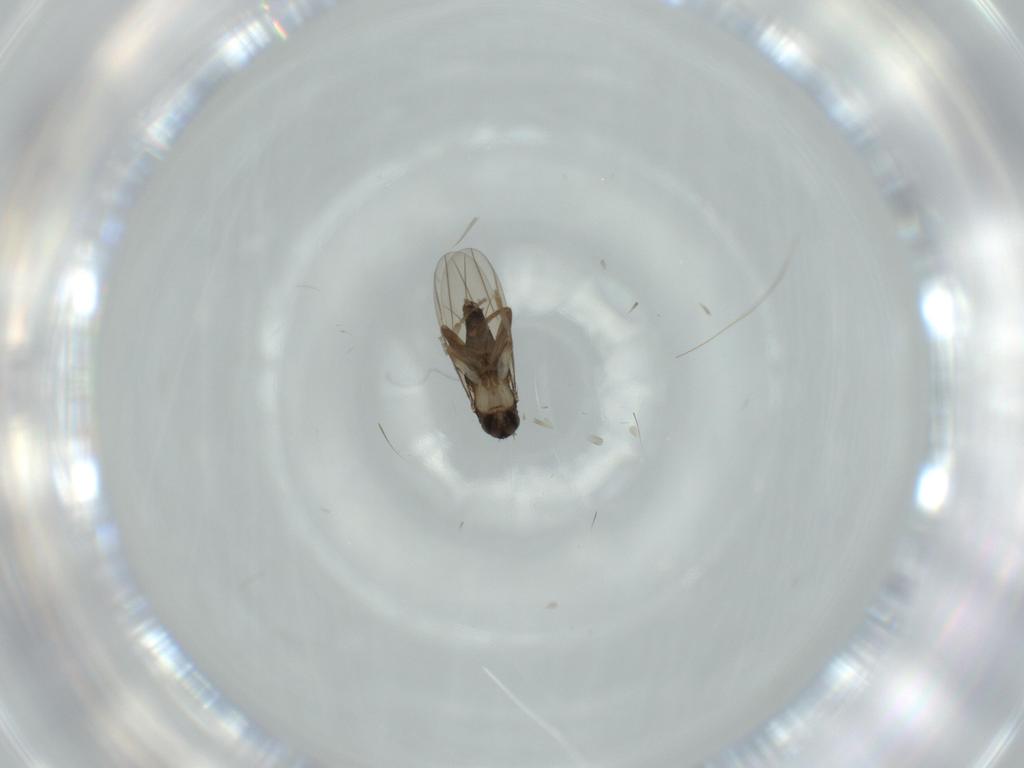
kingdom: Animalia
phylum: Arthropoda
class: Insecta
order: Diptera
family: Phoridae
